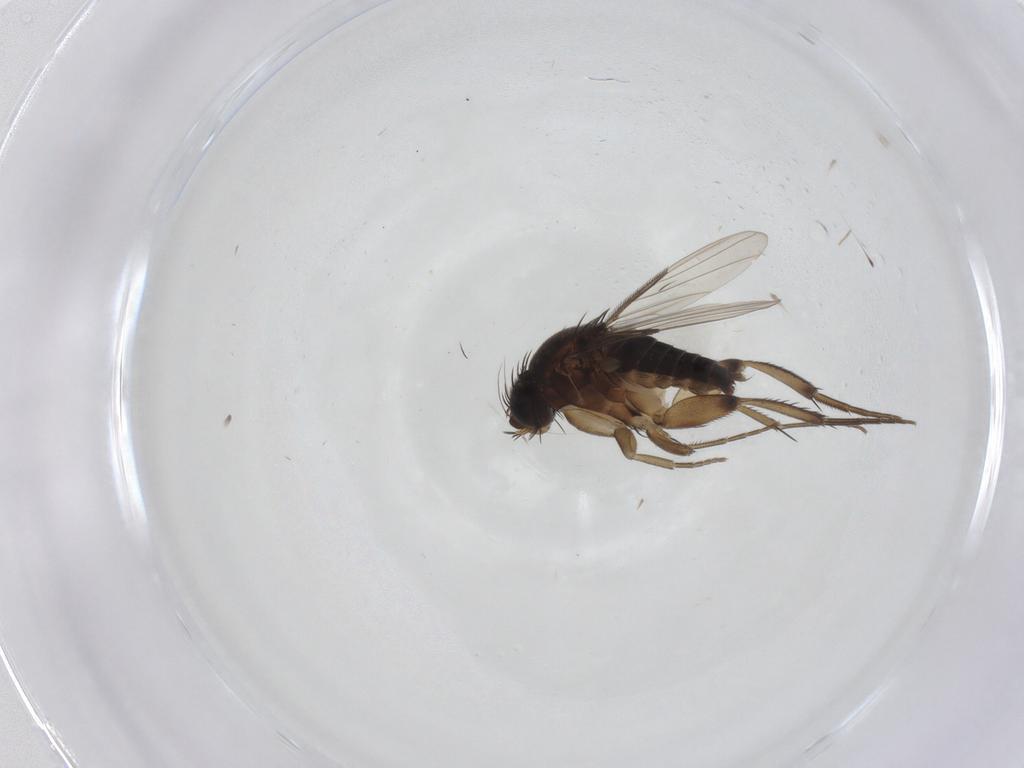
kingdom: Animalia
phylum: Arthropoda
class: Insecta
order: Diptera
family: Phoridae
